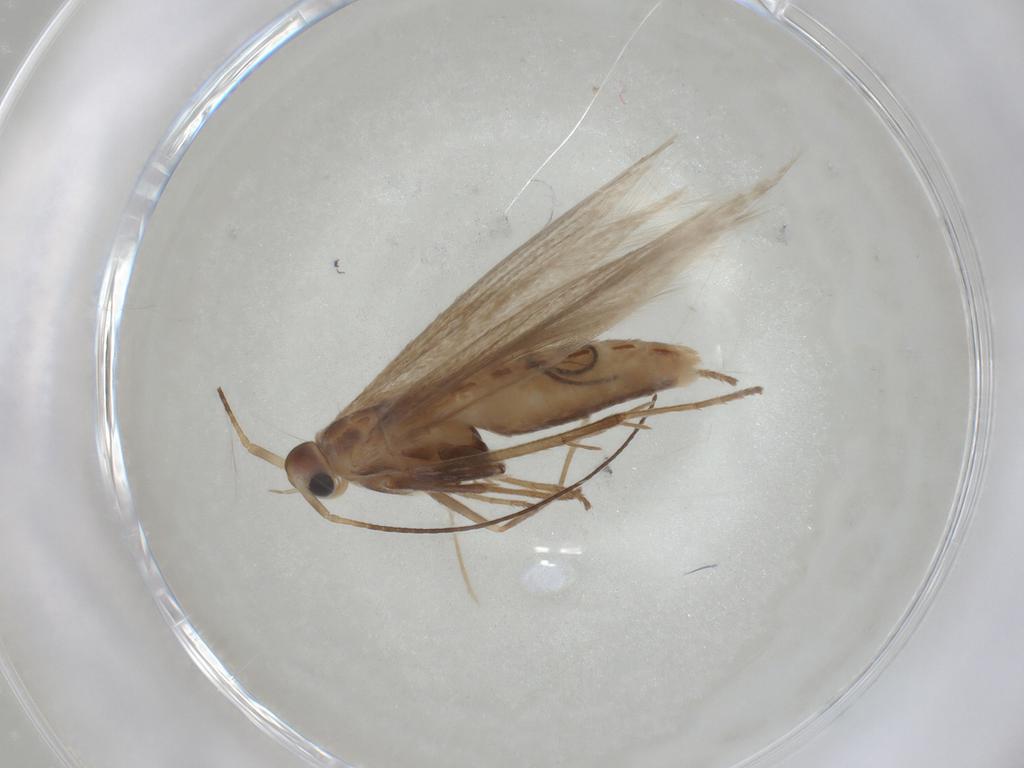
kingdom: Animalia
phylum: Arthropoda
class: Insecta
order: Lepidoptera
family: Coleophoridae
